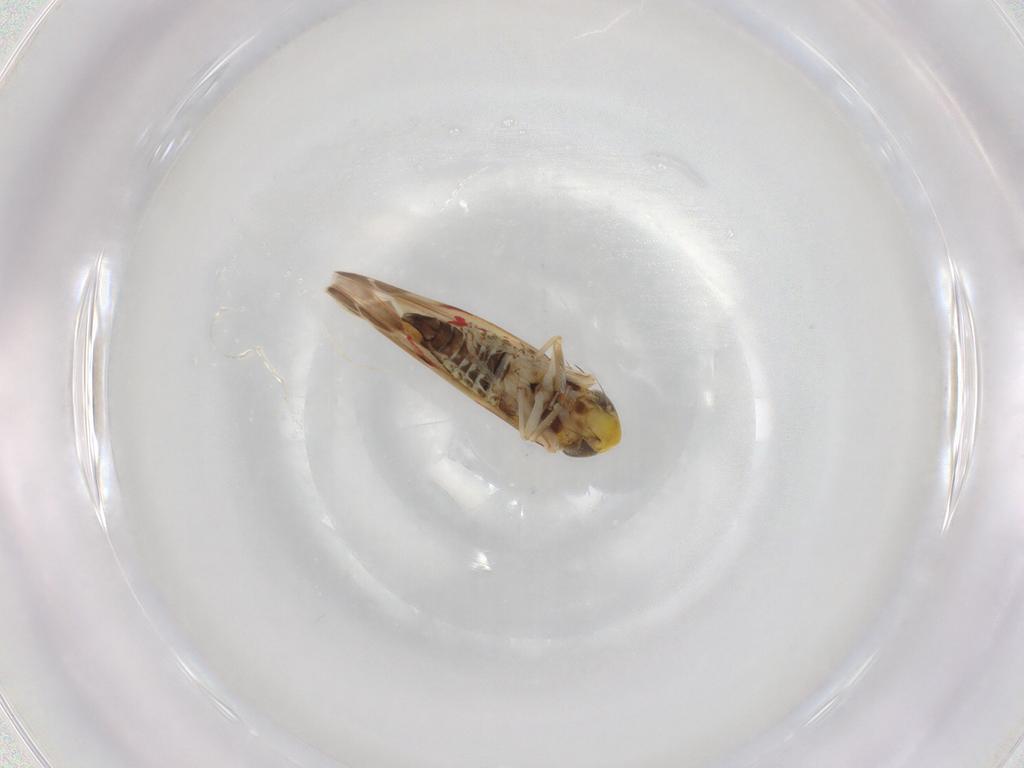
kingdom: Animalia
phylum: Arthropoda
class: Insecta
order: Hemiptera
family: Cicadellidae
